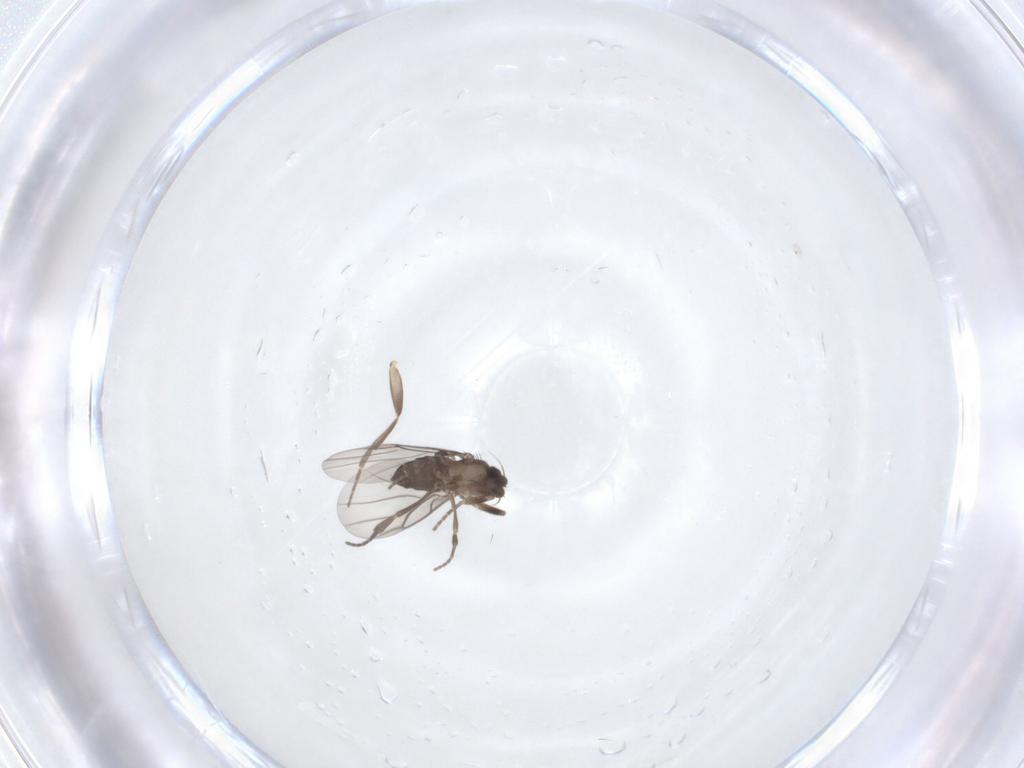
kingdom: Animalia
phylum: Arthropoda
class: Insecta
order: Diptera
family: Phoridae
